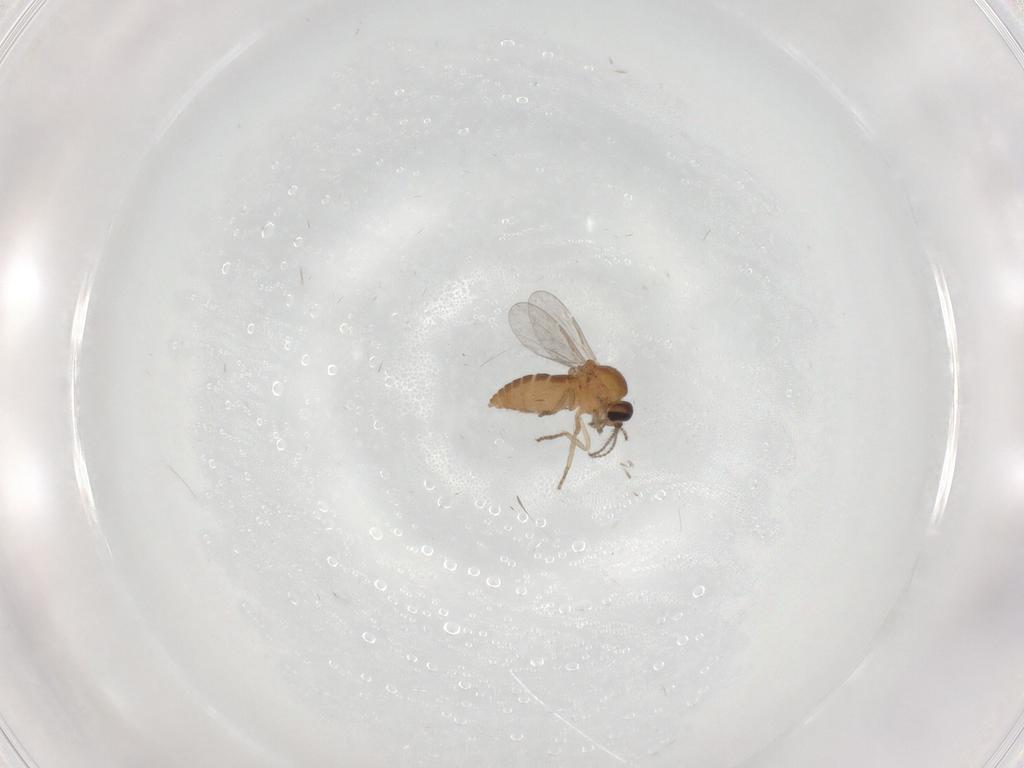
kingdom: Animalia
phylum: Arthropoda
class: Insecta
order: Diptera
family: Ceratopogonidae
